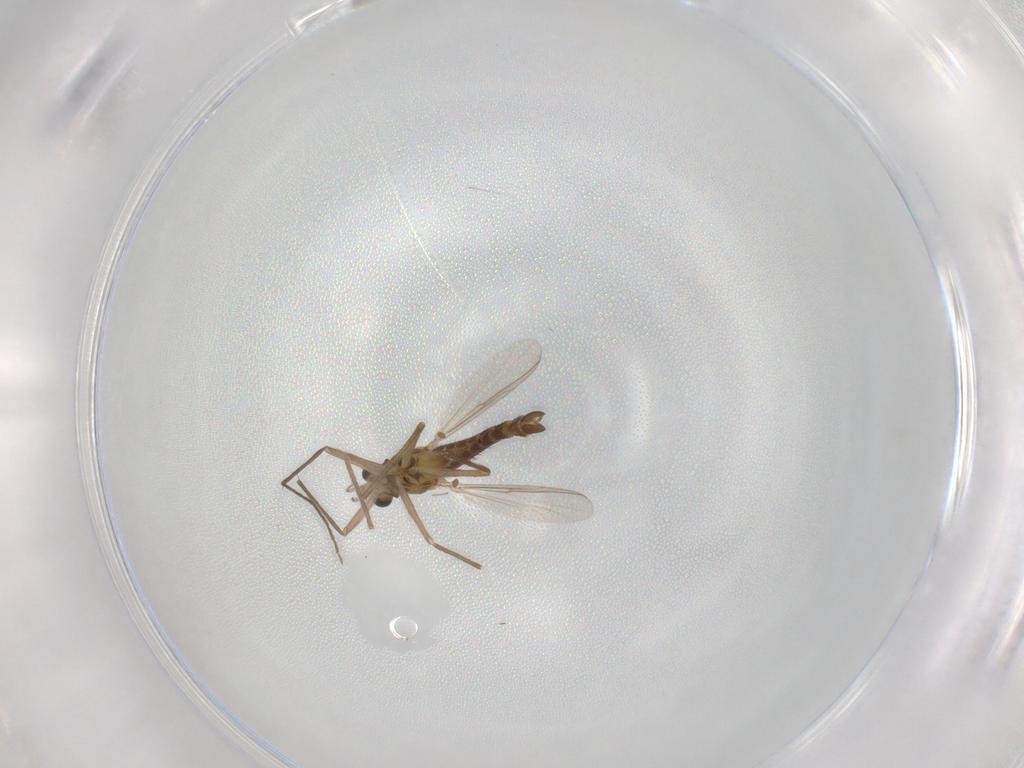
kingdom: Animalia
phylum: Arthropoda
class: Insecta
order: Diptera
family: Chironomidae
